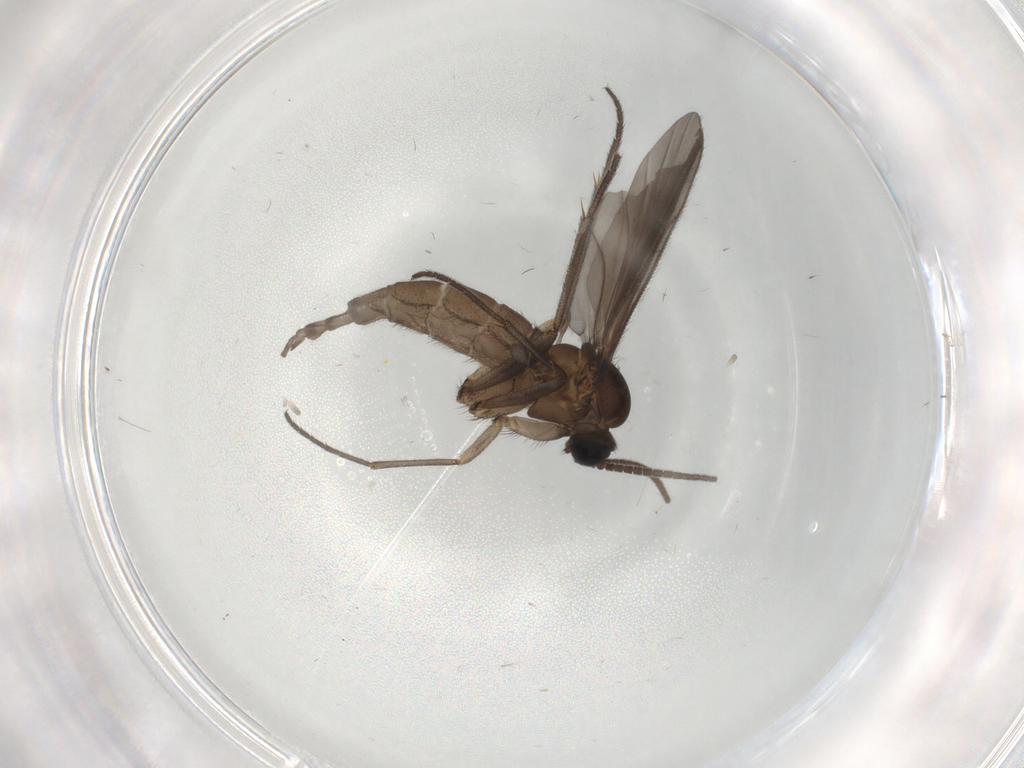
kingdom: Animalia
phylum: Arthropoda
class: Insecta
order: Diptera
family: Sciaridae
